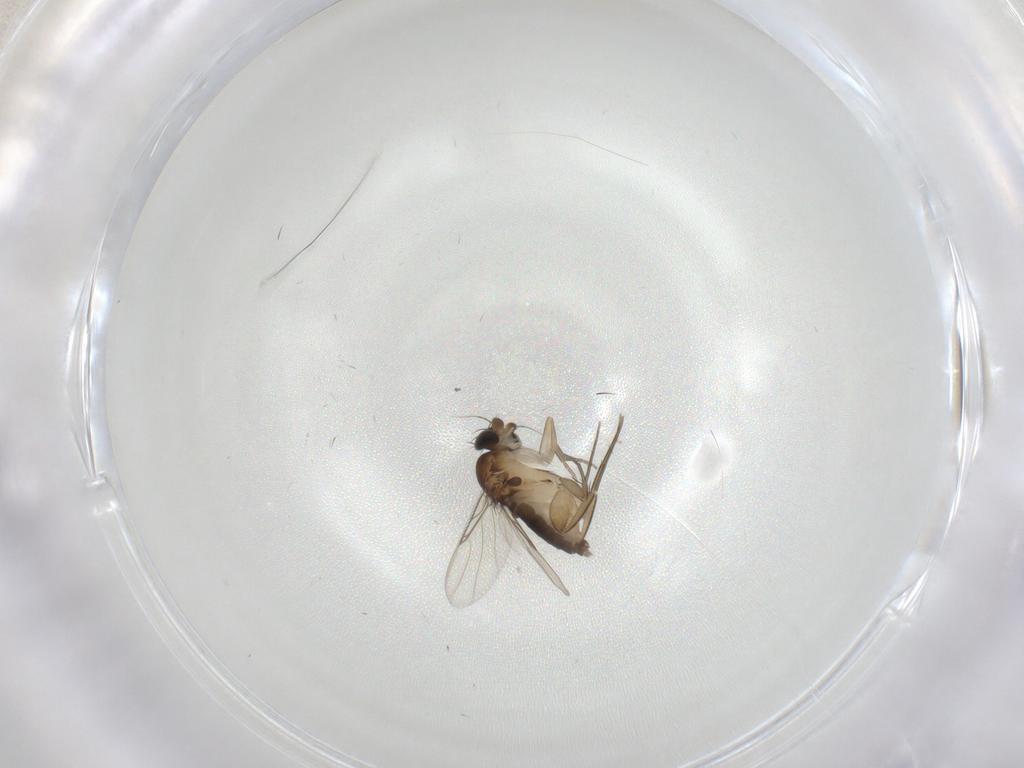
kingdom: Animalia
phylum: Arthropoda
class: Insecta
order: Diptera
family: Phoridae
